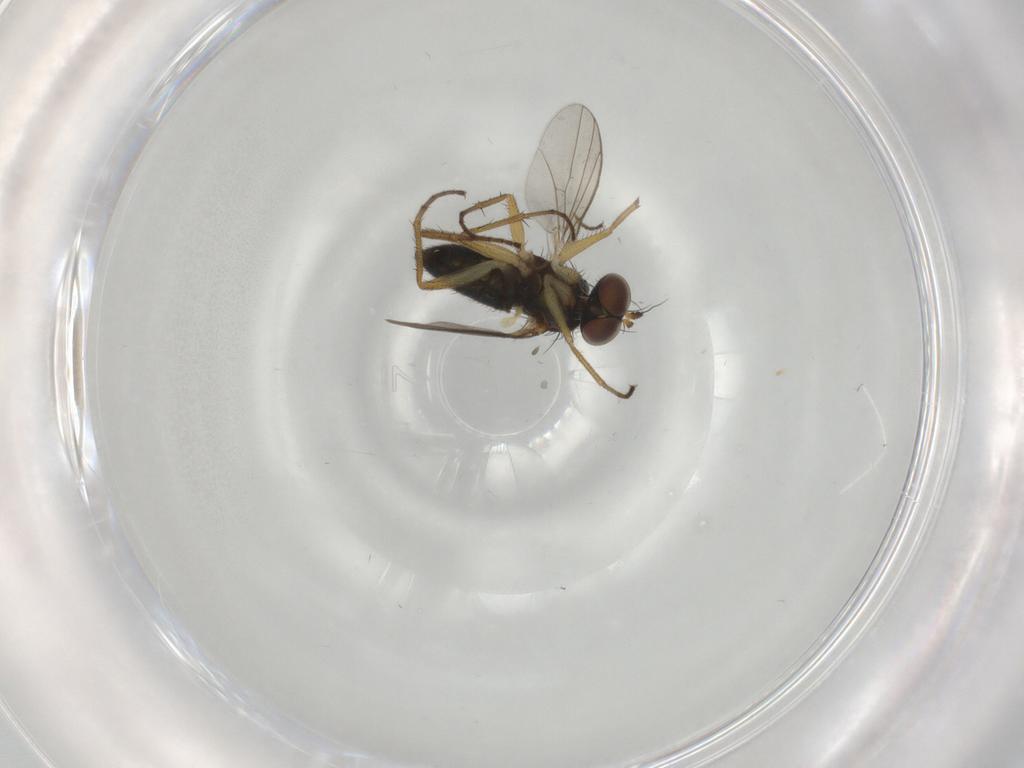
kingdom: Animalia
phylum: Arthropoda
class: Insecta
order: Diptera
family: Dolichopodidae
